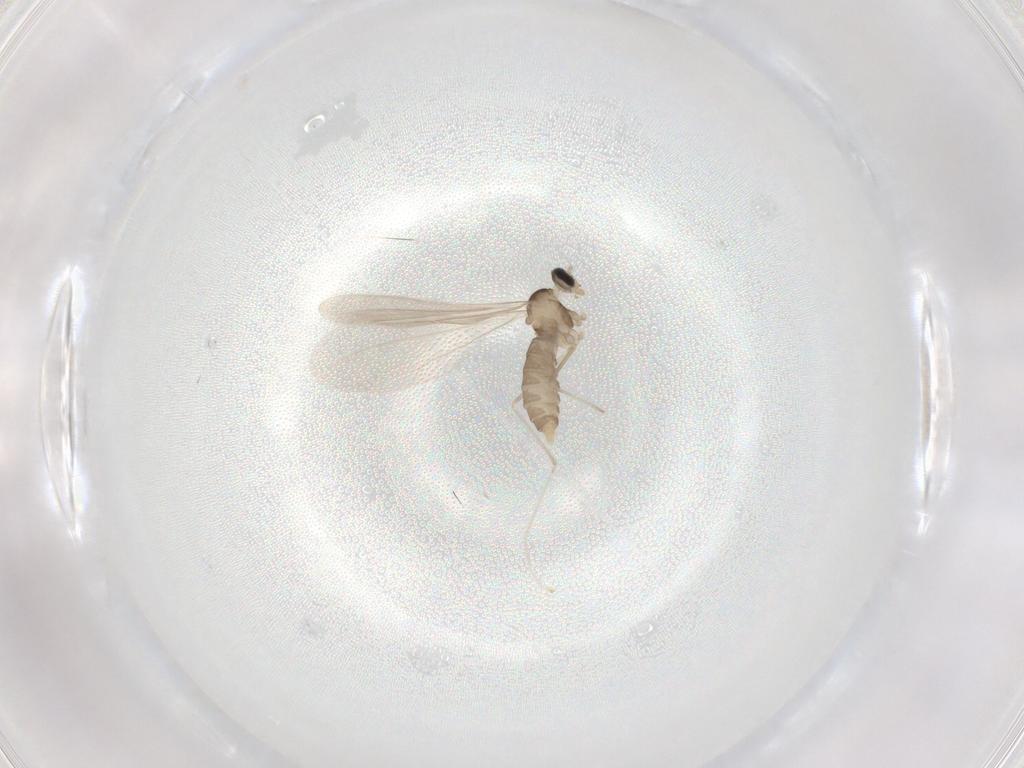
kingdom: Animalia
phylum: Arthropoda
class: Insecta
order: Diptera
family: Cecidomyiidae
